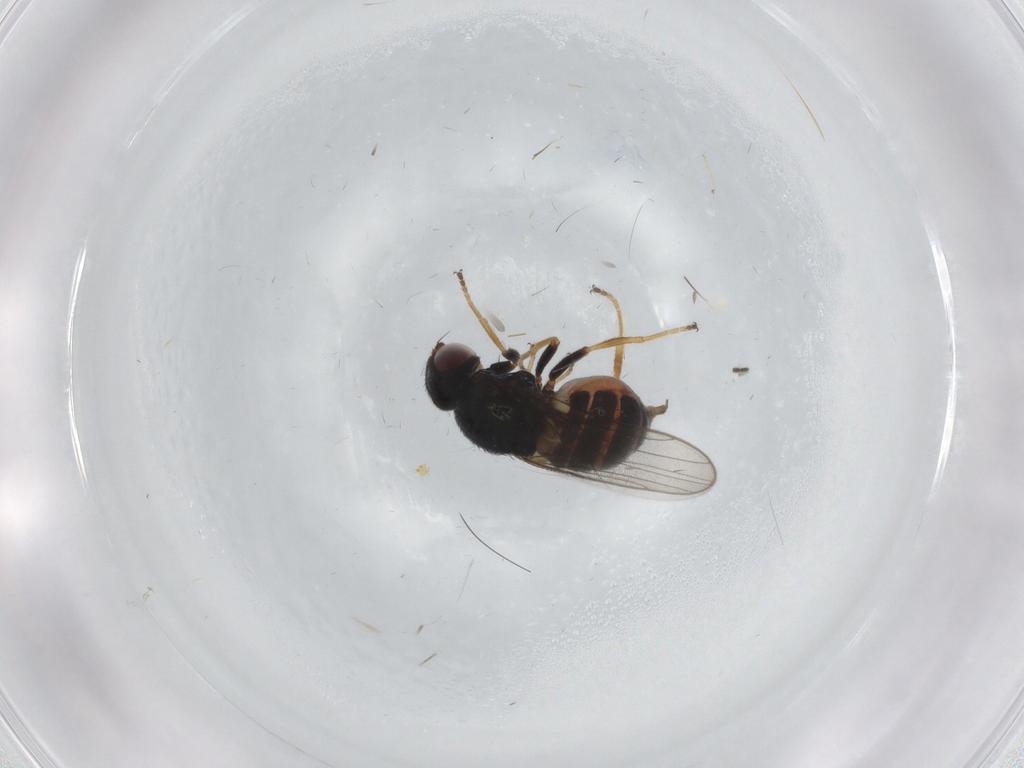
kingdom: Animalia
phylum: Arthropoda
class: Insecta
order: Diptera
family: Chloropidae
